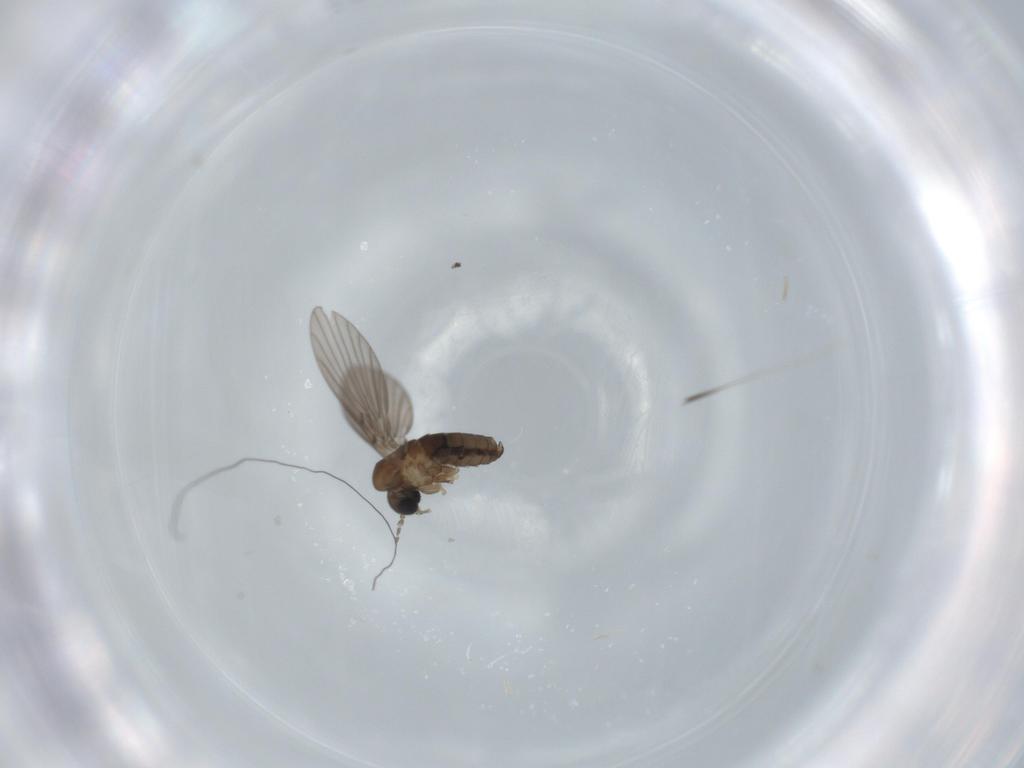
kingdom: Animalia
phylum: Arthropoda
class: Insecta
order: Diptera
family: Psychodidae
